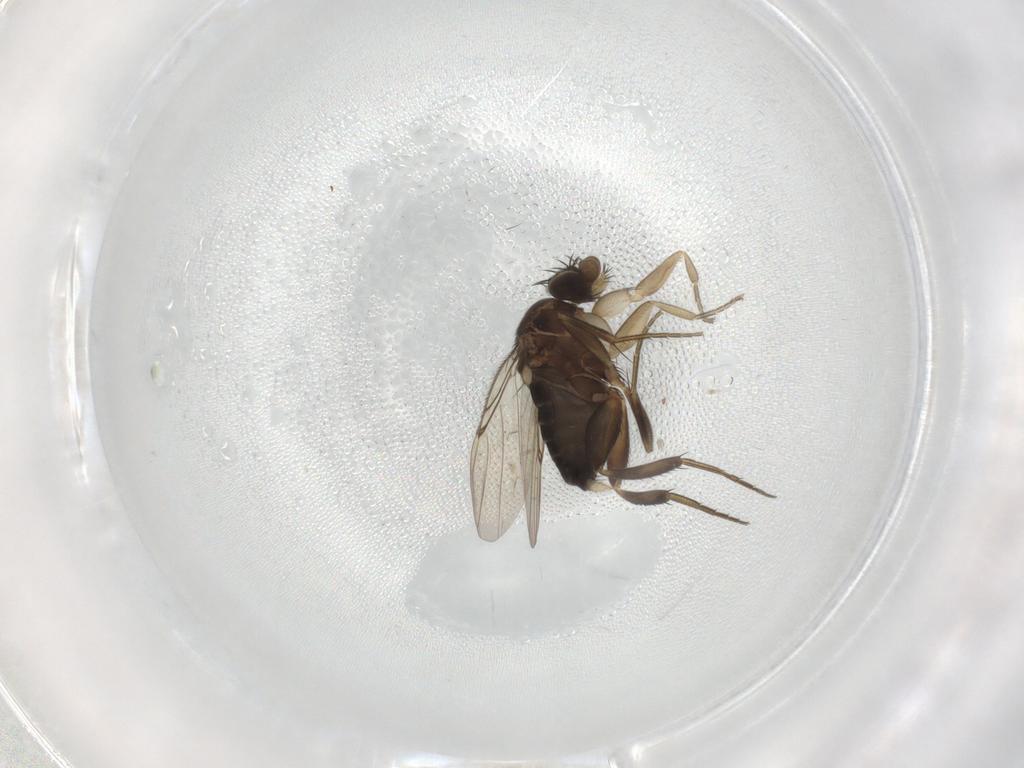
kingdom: Animalia
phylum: Arthropoda
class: Insecta
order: Diptera
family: Phoridae
